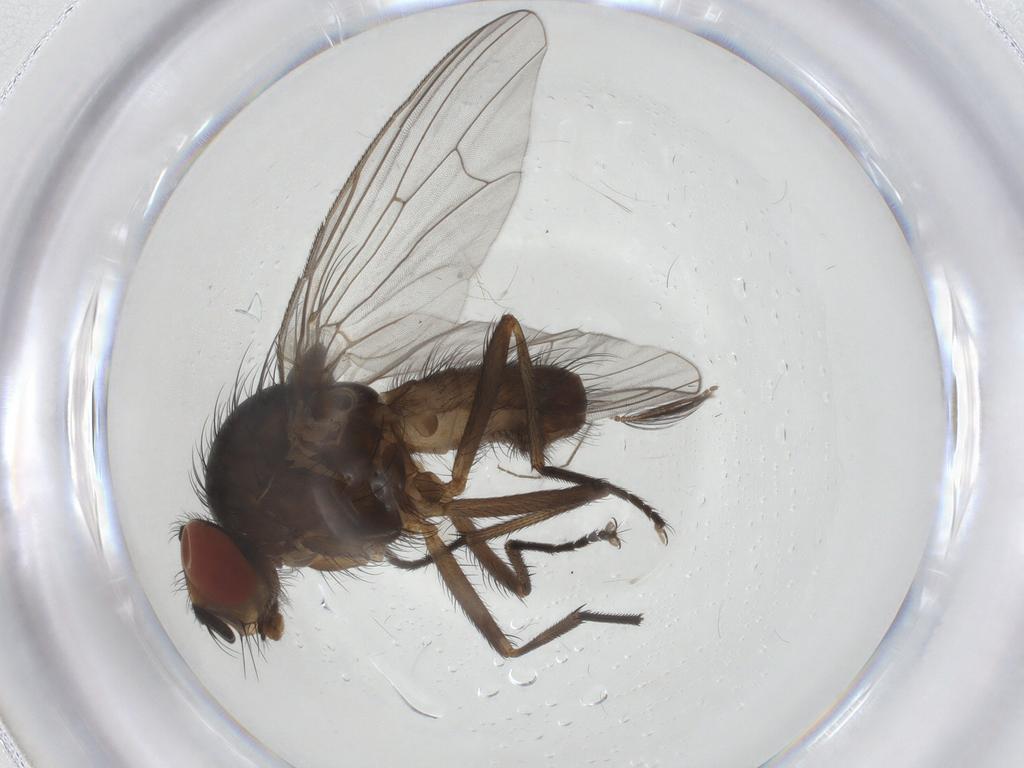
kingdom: Animalia
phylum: Arthropoda
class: Insecta
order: Diptera
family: Anthomyiidae
